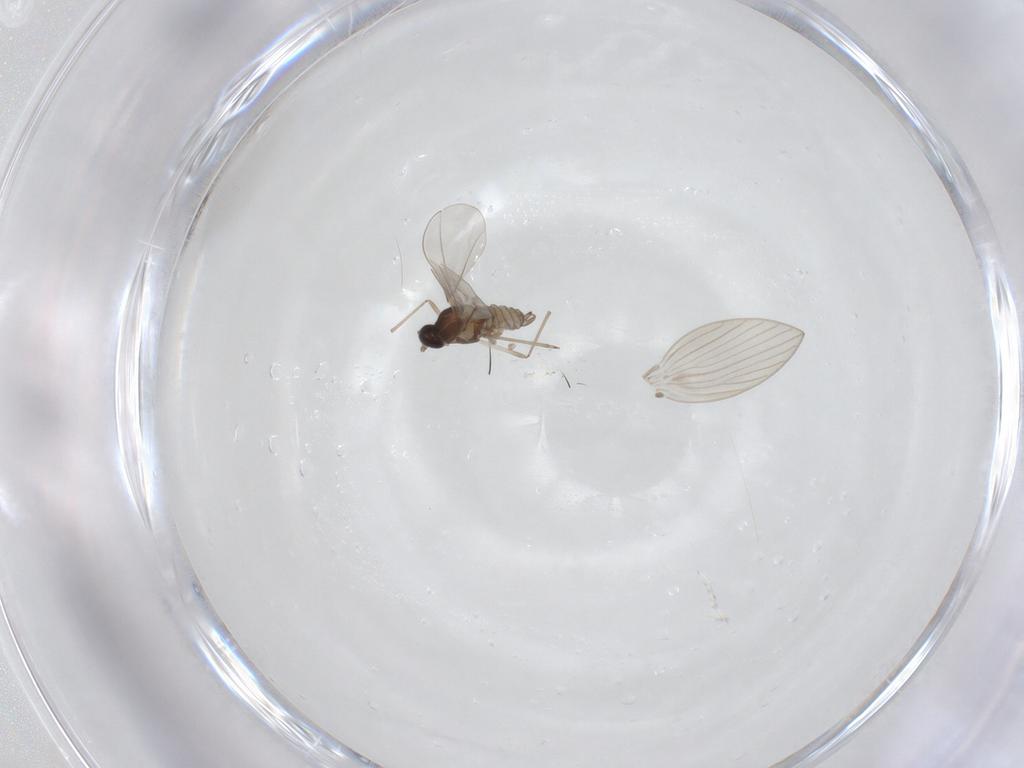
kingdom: Animalia
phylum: Arthropoda
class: Insecta
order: Diptera
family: Cecidomyiidae
